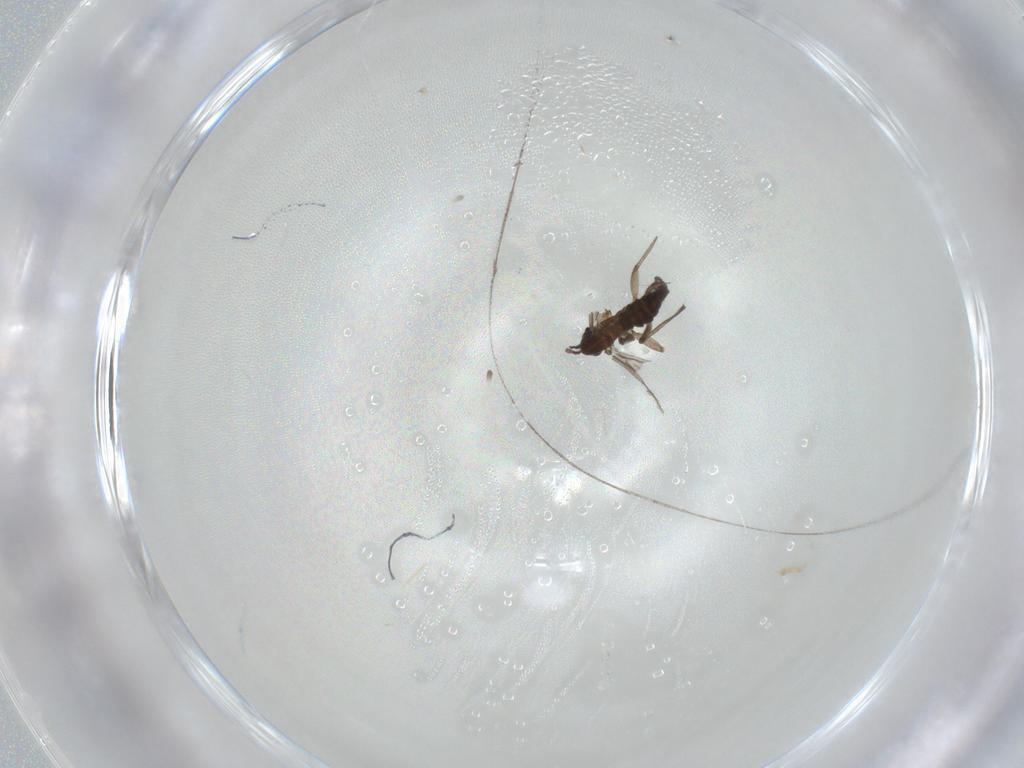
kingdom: Animalia
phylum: Arthropoda
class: Insecta
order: Diptera
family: Sciaridae
